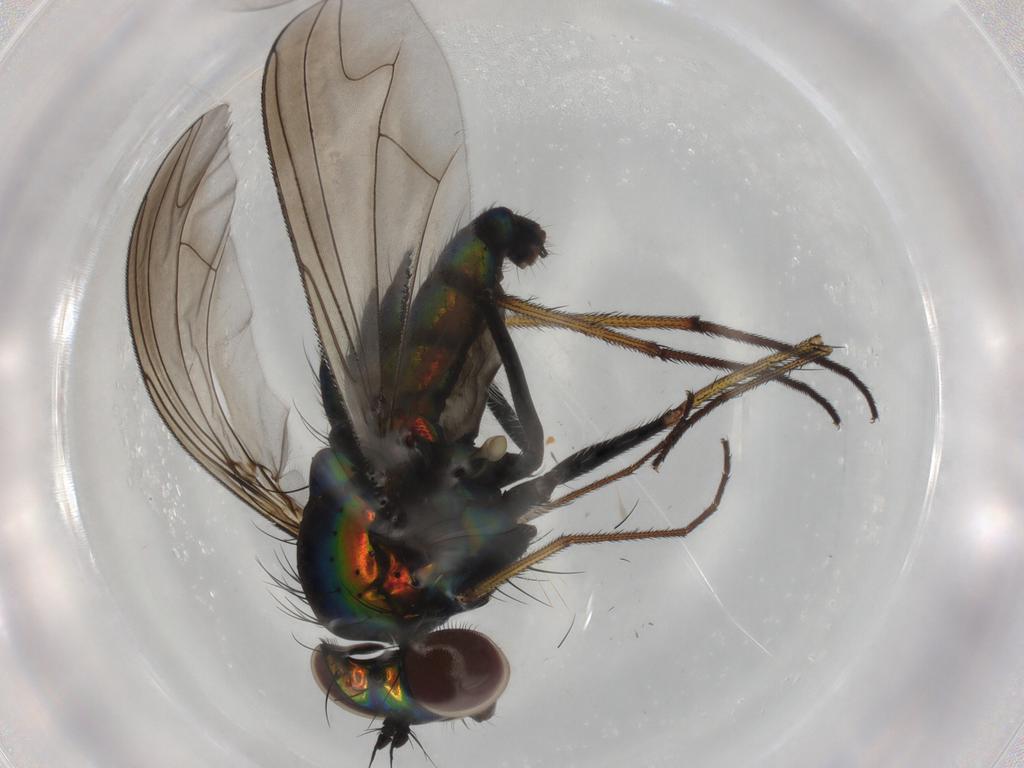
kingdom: Animalia
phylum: Arthropoda
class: Insecta
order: Diptera
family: Dolichopodidae
